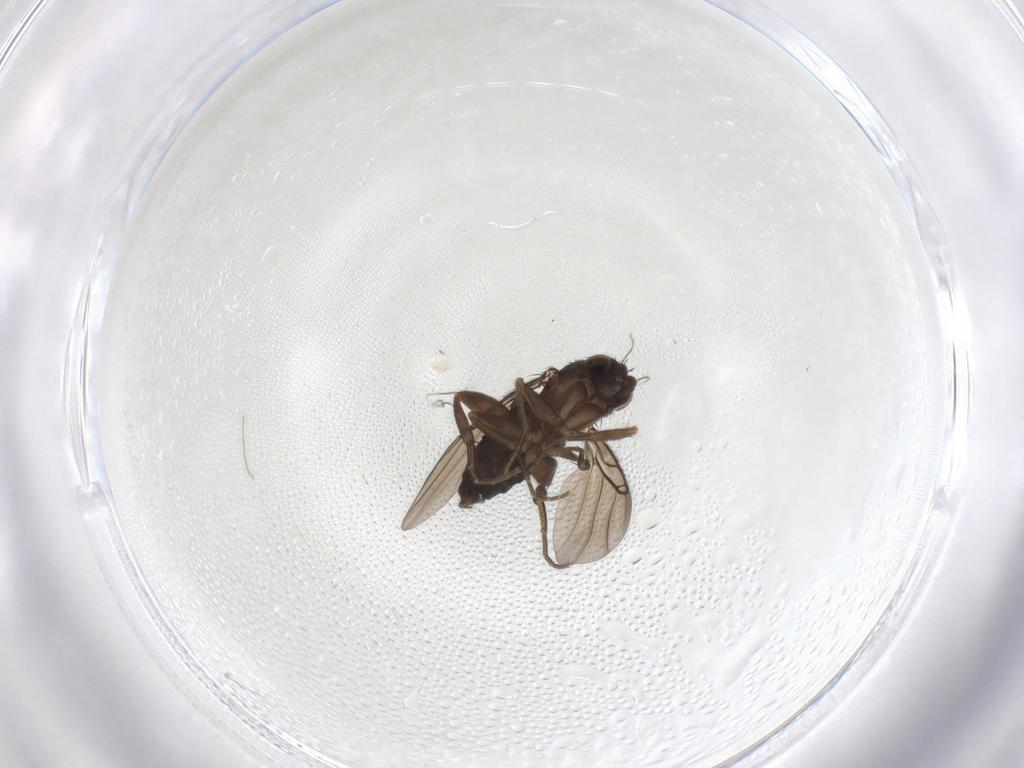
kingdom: Animalia
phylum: Arthropoda
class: Insecta
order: Diptera
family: Phoridae
